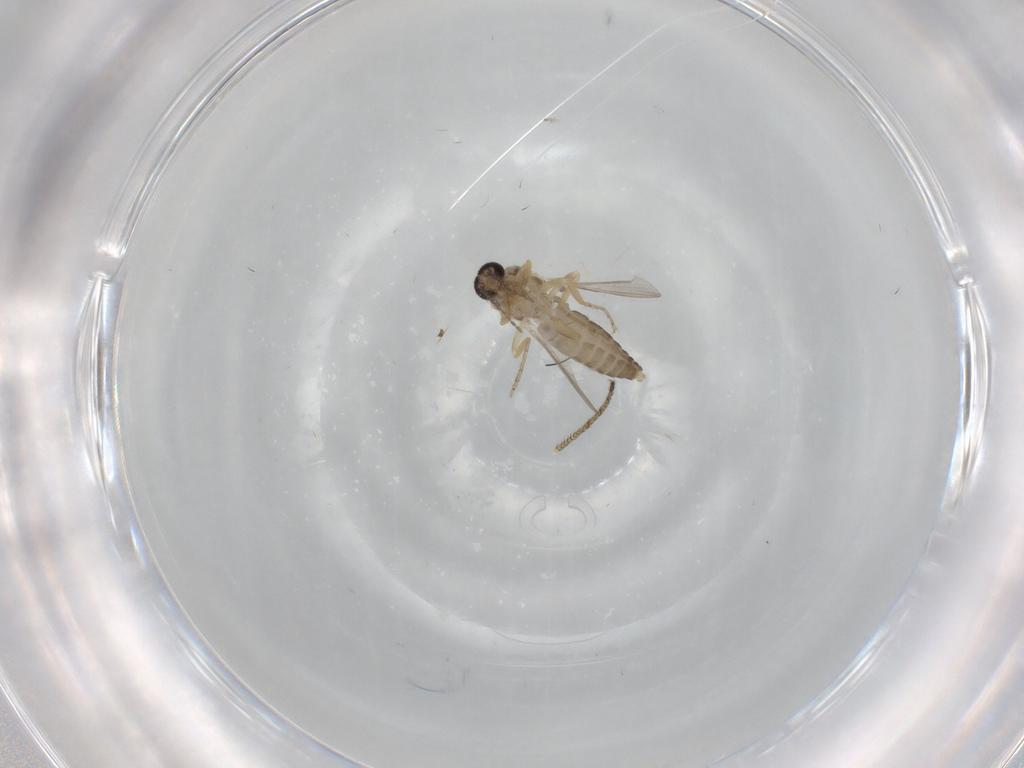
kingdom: Animalia
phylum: Arthropoda
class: Insecta
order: Diptera
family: Ceratopogonidae
